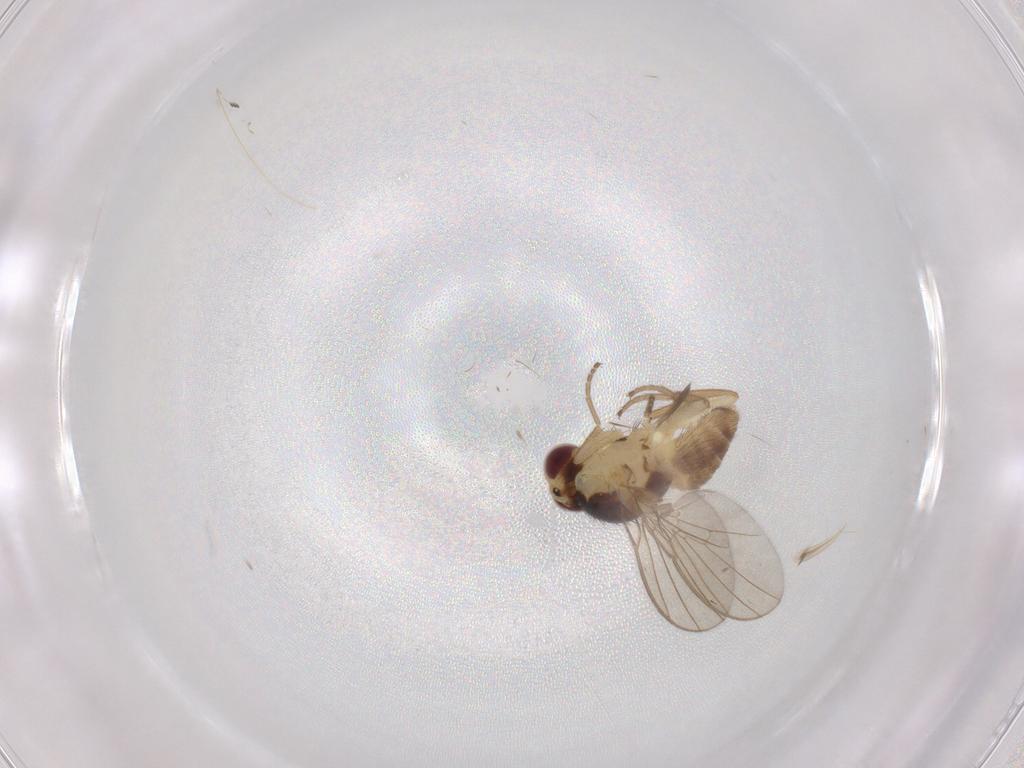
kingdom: Animalia
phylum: Arthropoda
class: Insecta
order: Diptera
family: Agromyzidae
